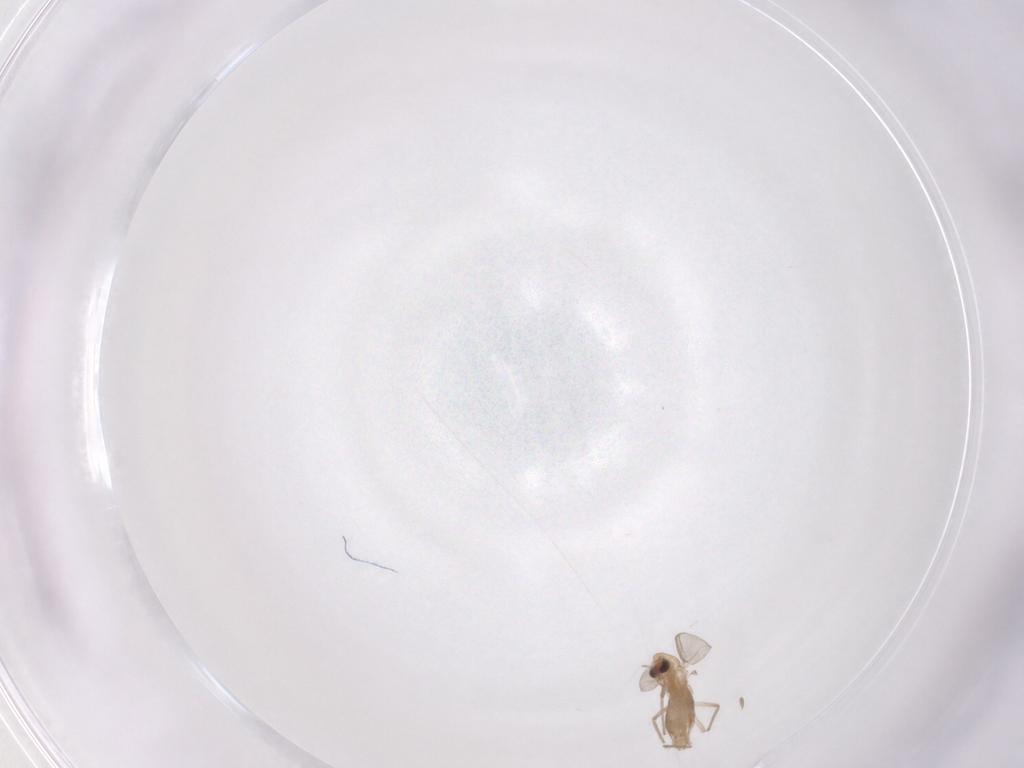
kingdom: Animalia
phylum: Arthropoda
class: Insecta
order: Diptera
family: Chironomidae
